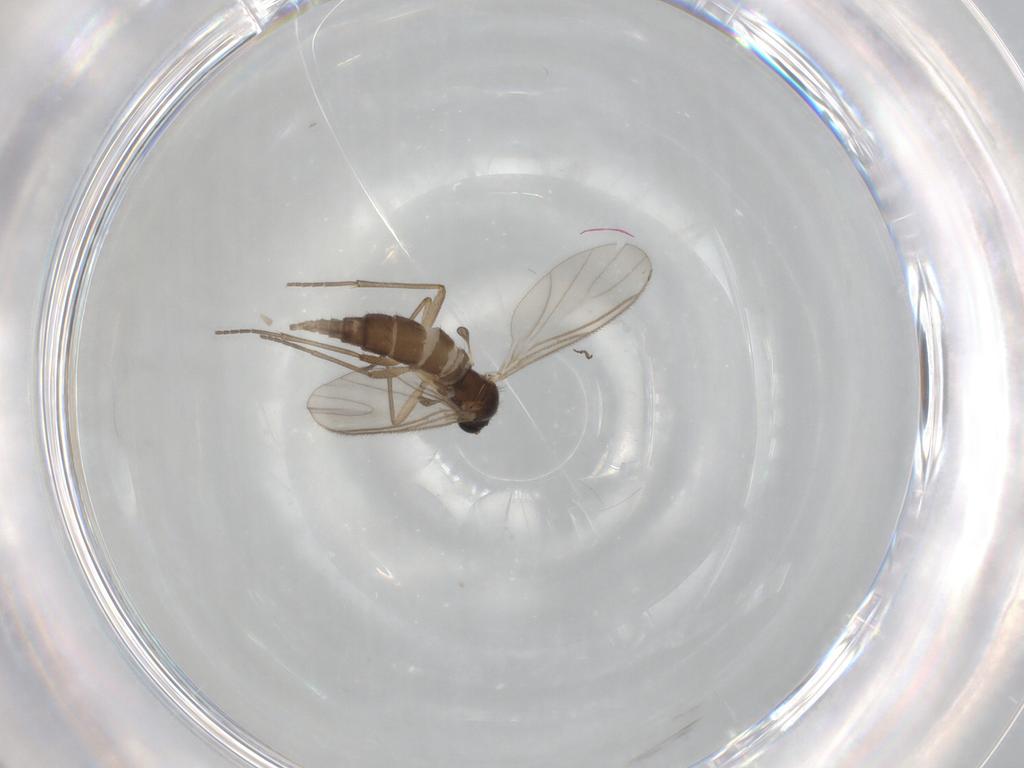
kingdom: Animalia
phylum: Arthropoda
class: Insecta
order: Diptera
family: Sciaridae
